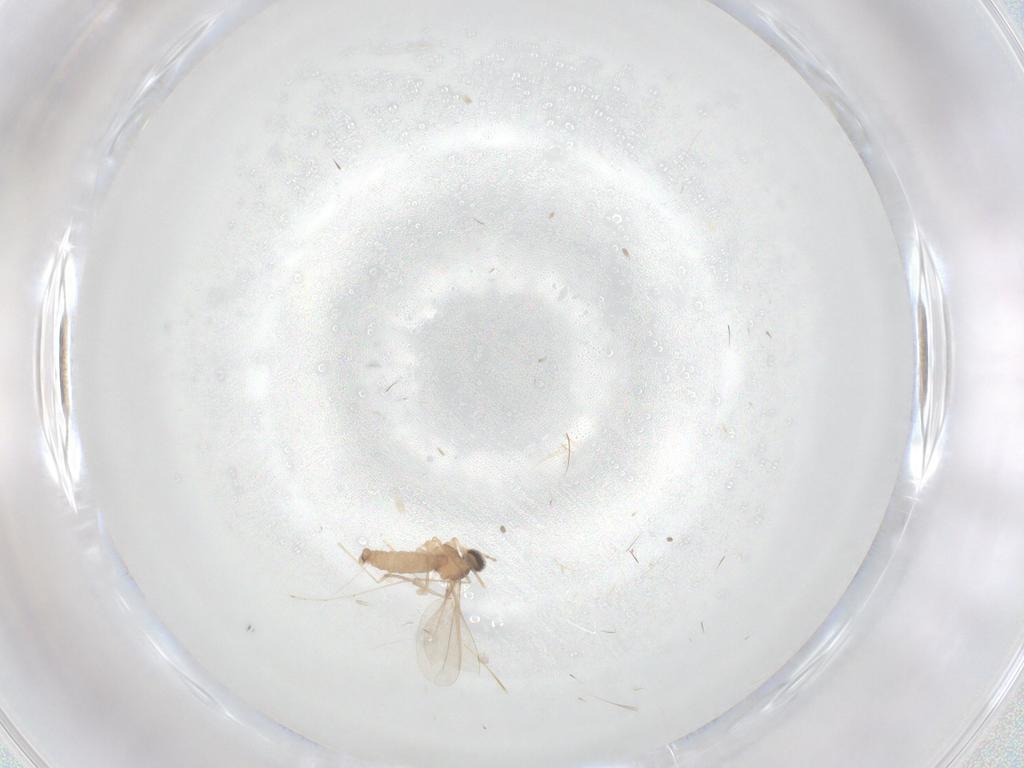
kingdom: Animalia
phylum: Arthropoda
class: Insecta
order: Diptera
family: Cecidomyiidae
